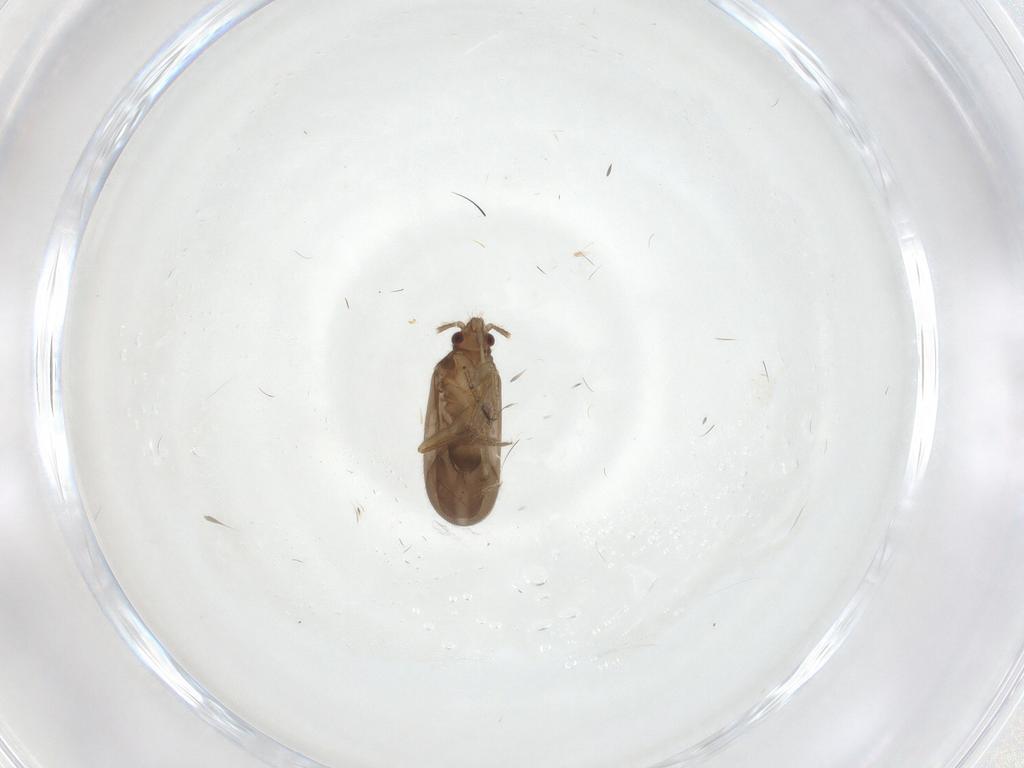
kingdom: Animalia
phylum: Arthropoda
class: Insecta
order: Hemiptera
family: Ceratocombidae
